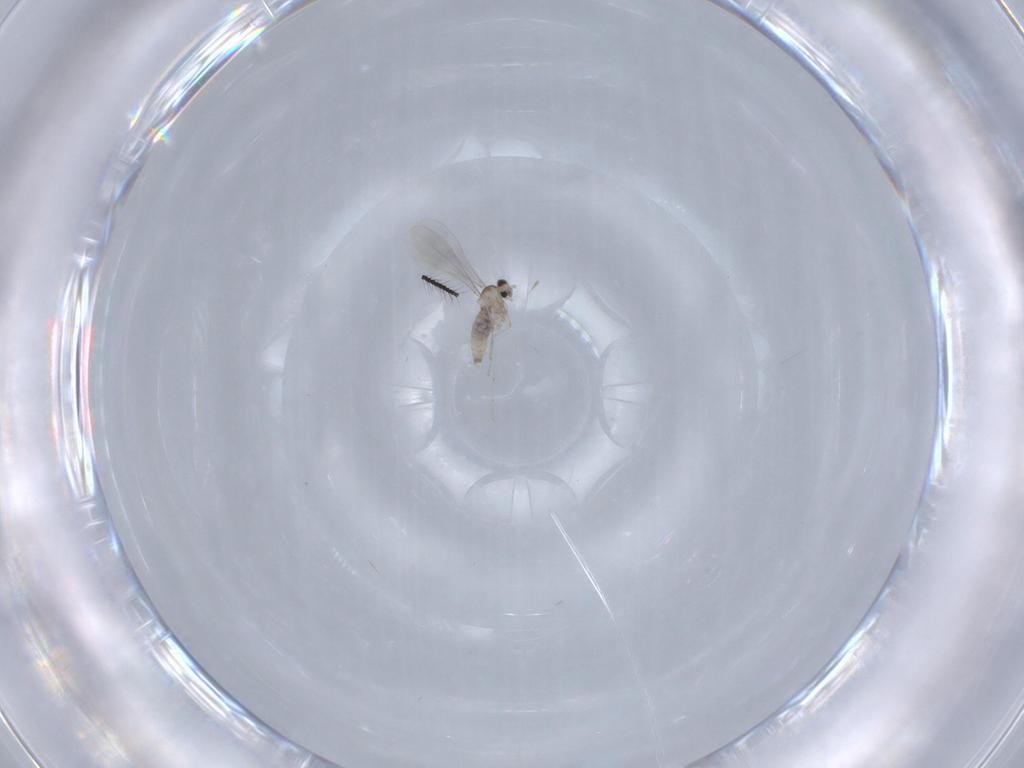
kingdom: Animalia
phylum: Arthropoda
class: Insecta
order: Diptera
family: Cecidomyiidae
